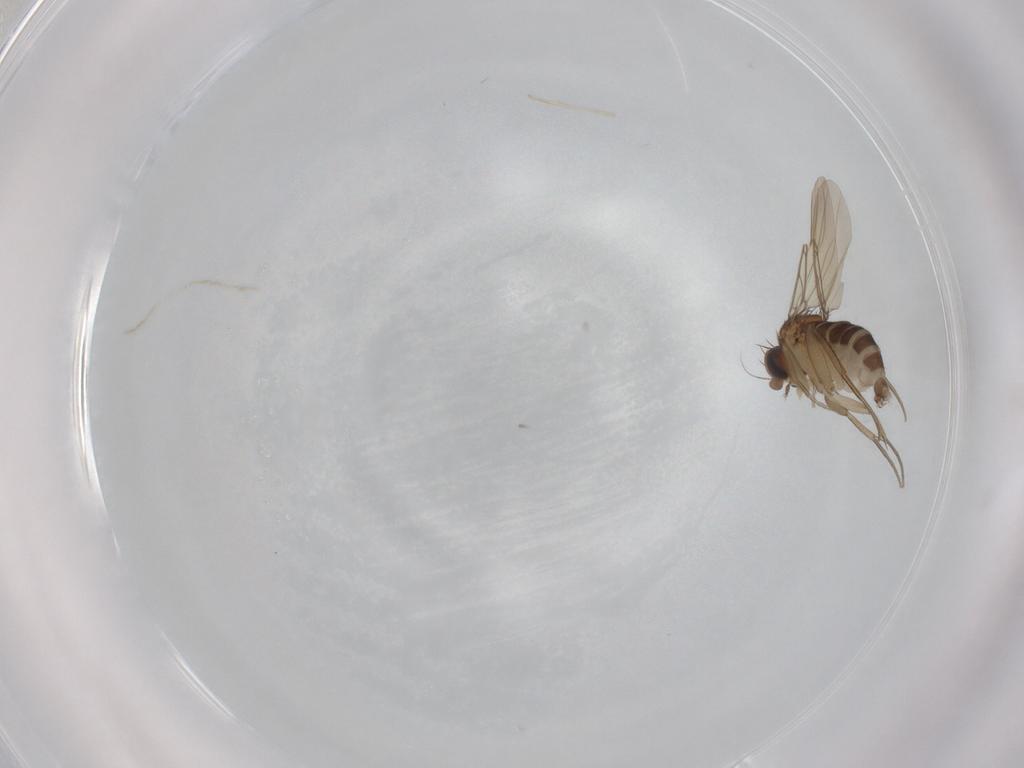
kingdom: Animalia
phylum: Arthropoda
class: Insecta
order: Diptera
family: Phoridae
